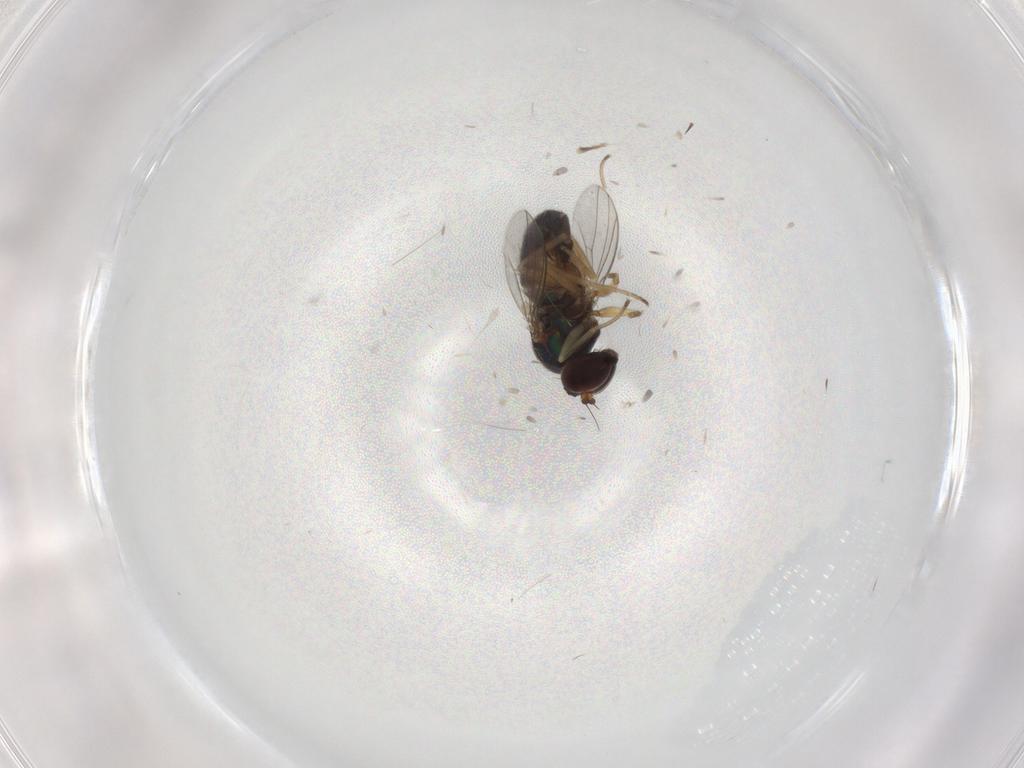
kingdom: Animalia
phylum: Arthropoda
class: Insecta
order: Diptera
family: Dolichopodidae
